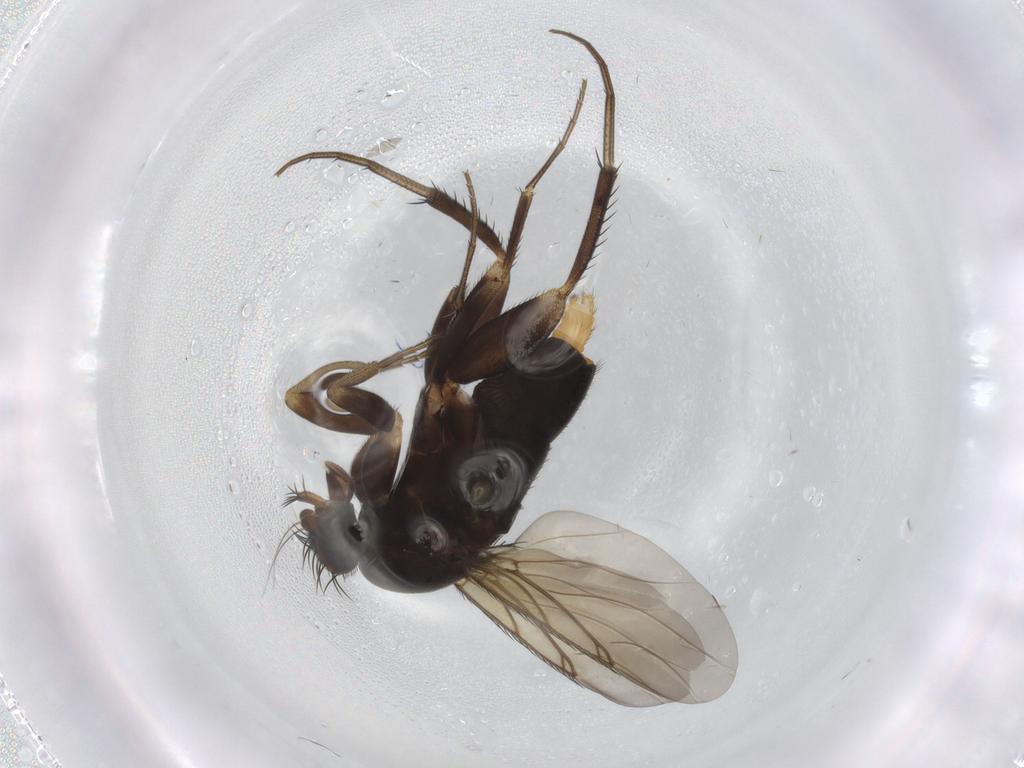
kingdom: Animalia
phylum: Arthropoda
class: Insecta
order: Diptera
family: Phoridae
